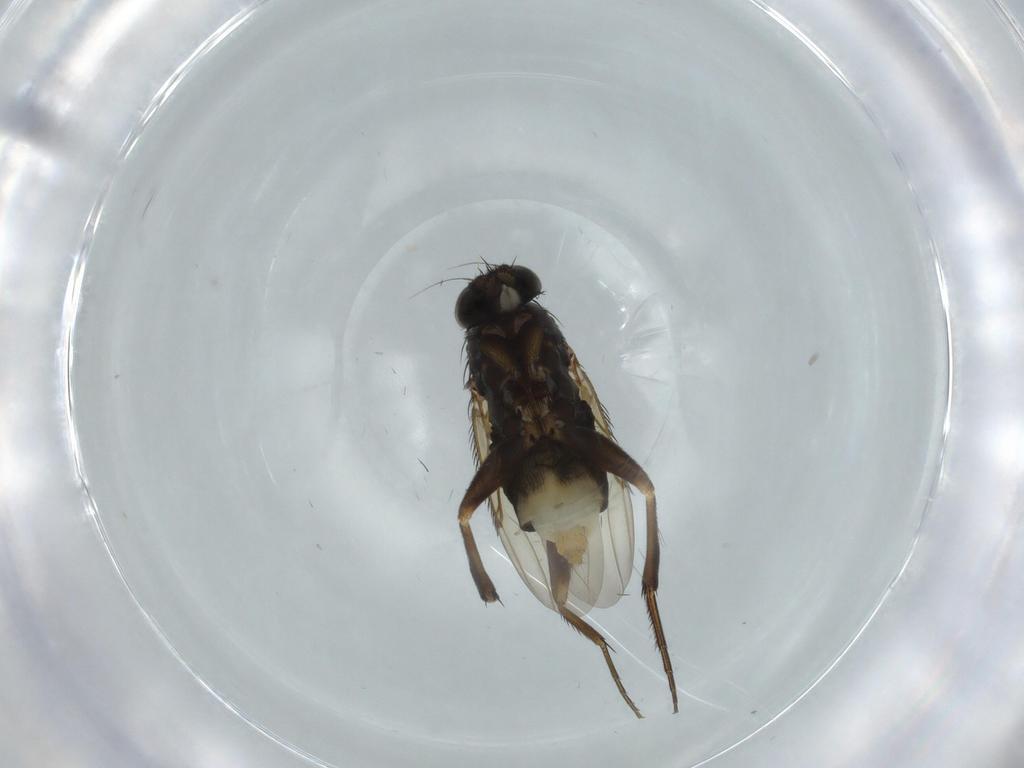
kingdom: Animalia
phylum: Arthropoda
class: Insecta
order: Diptera
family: Phoridae
